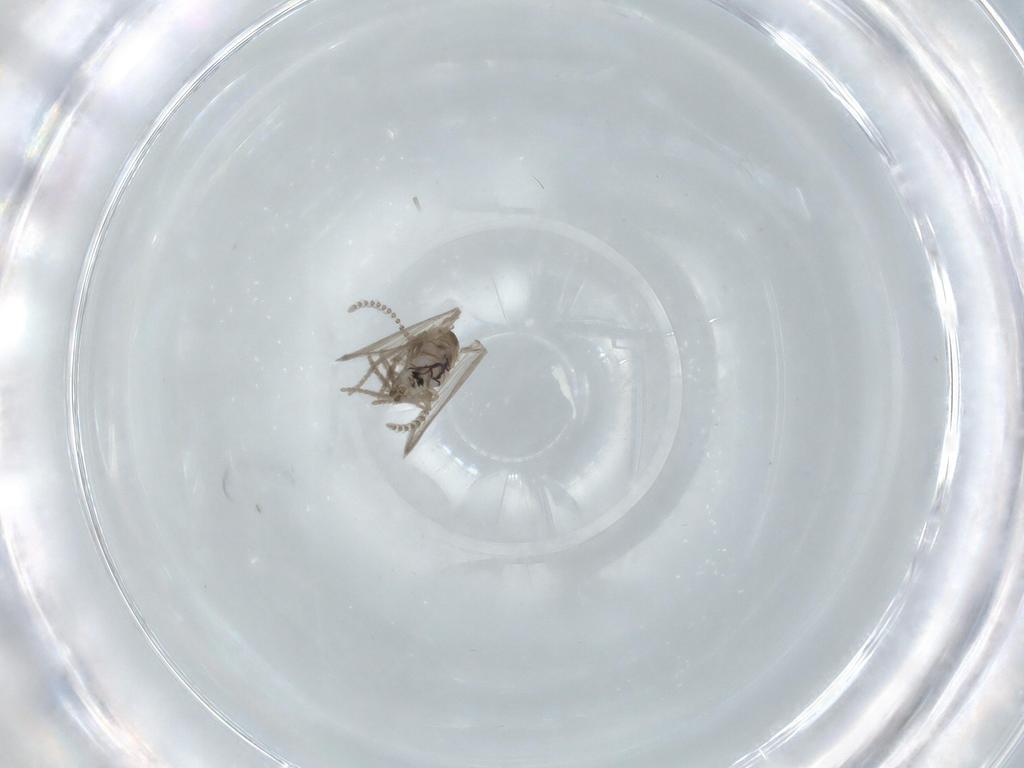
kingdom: Animalia
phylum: Arthropoda
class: Insecta
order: Diptera
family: Psychodidae
